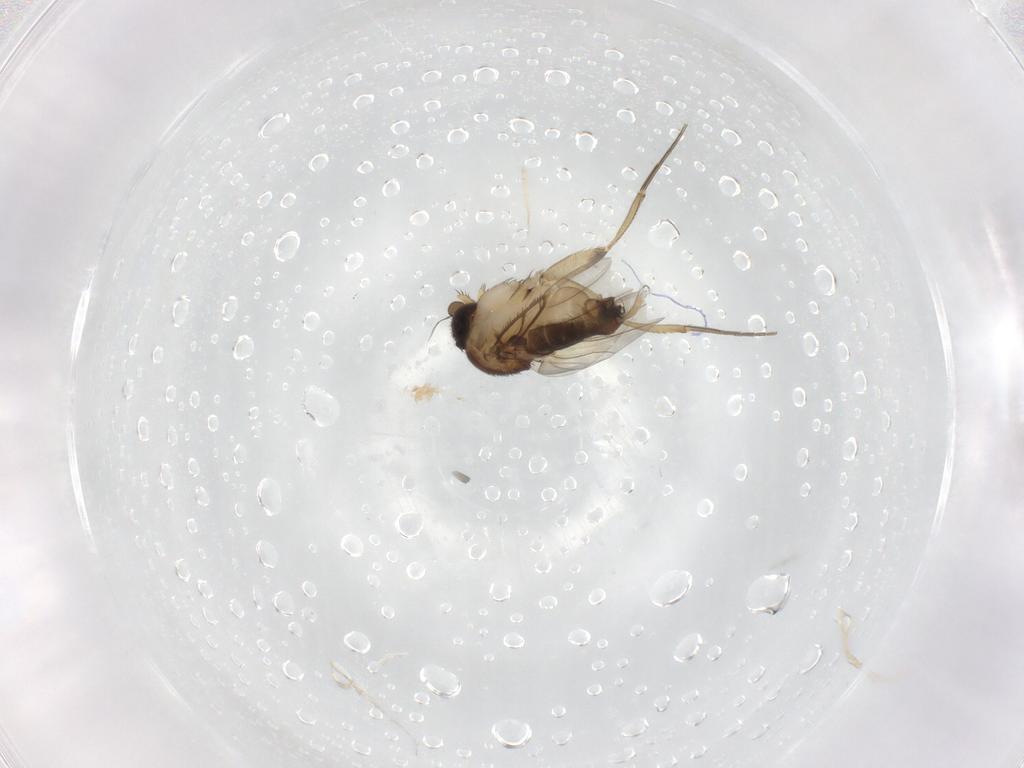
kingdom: Animalia
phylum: Arthropoda
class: Insecta
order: Diptera
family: Phoridae
